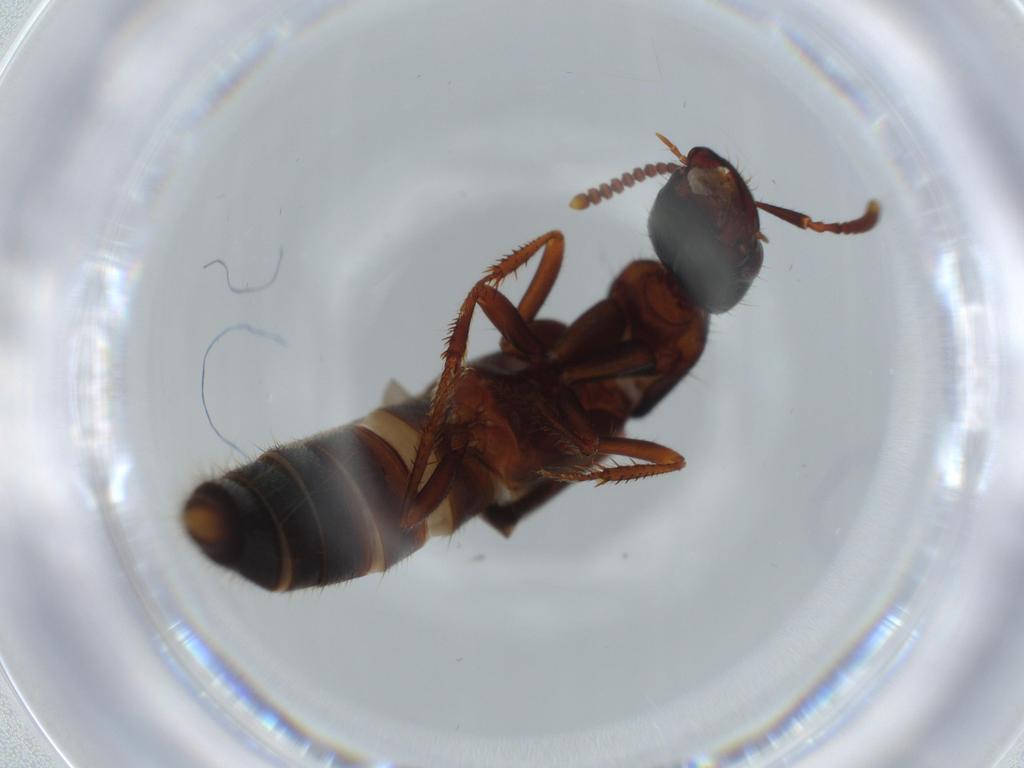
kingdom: Animalia
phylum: Arthropoda
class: Insecta
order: Coleoptera
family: Staphylinidae
